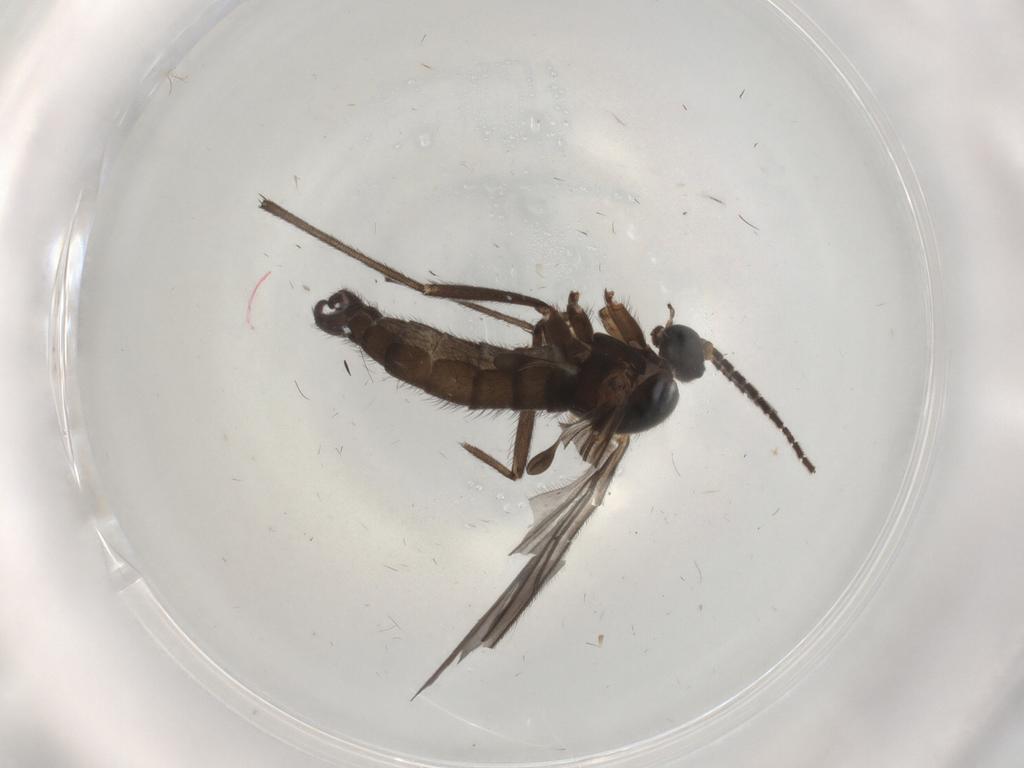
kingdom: Animalia
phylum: Arthropoda
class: Insecta
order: Diptera
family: Sciaridae
